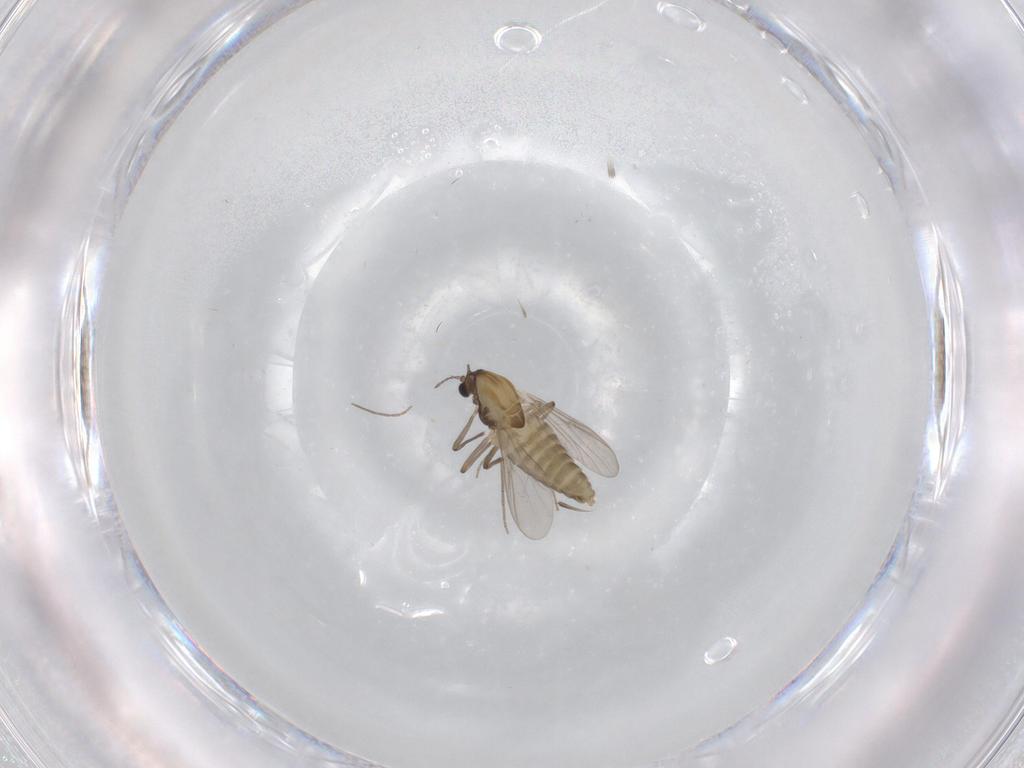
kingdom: Animalia
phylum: Arthropoda
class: Insecta
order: Diptera
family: Chironomidae
